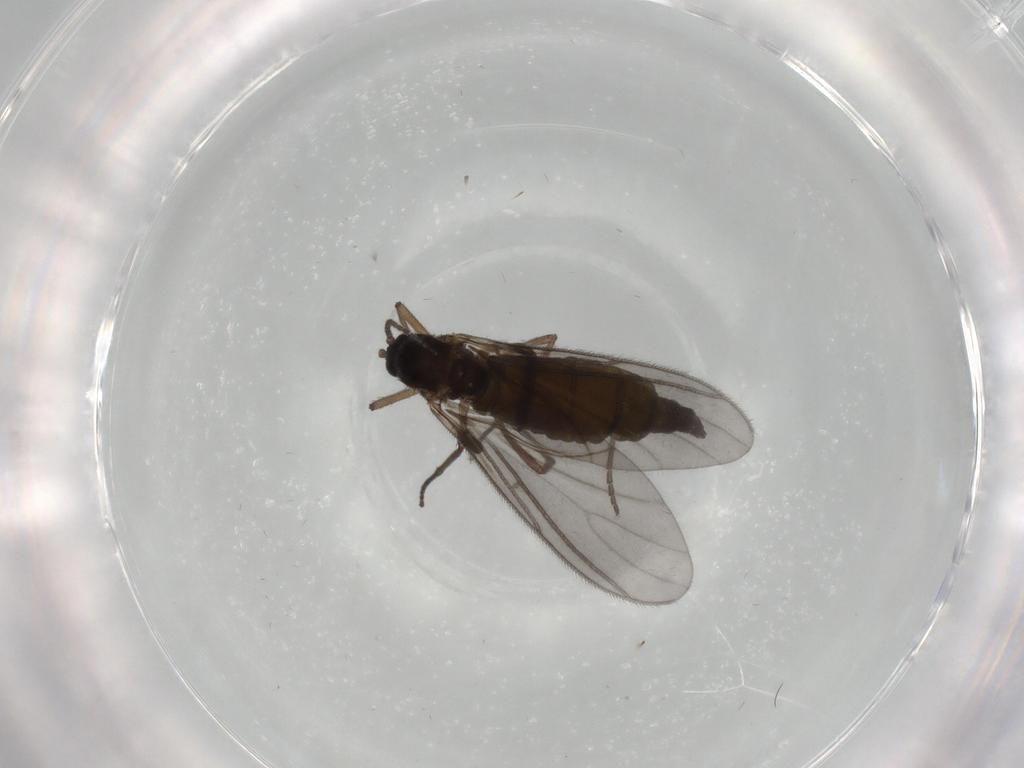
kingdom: Animalia
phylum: Arthropoda
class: Insecta
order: Diptera
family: Sciaridae
